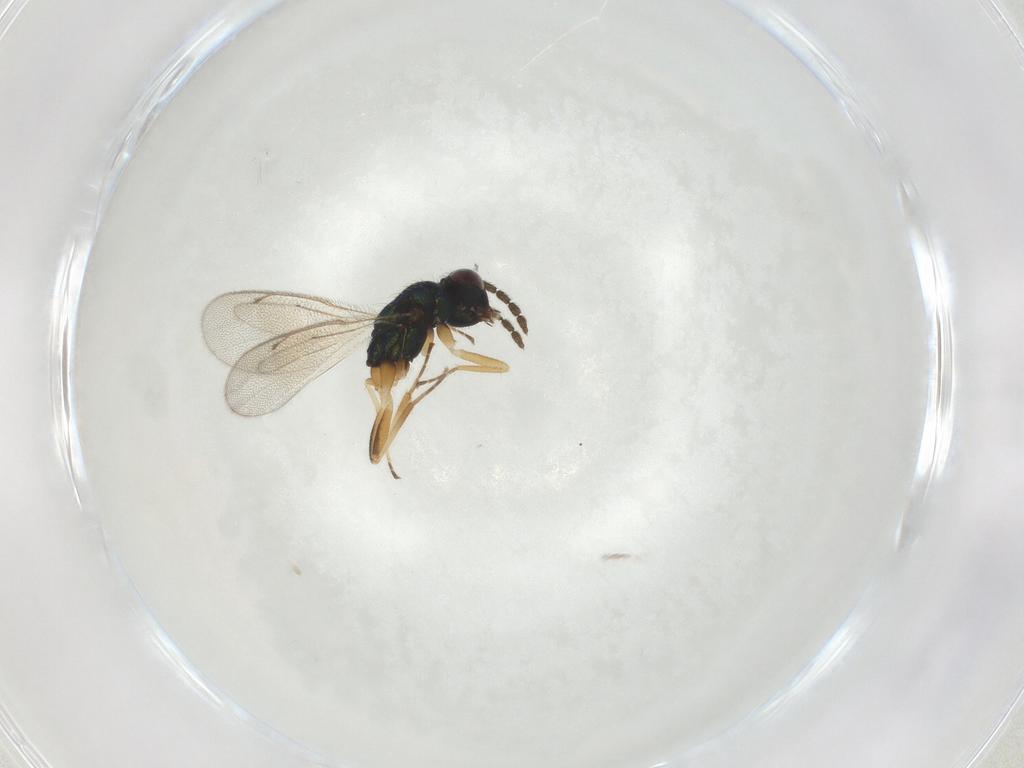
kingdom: Animalia
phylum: Arthropoda
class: Insecta
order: Hymenoptera
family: Eulophidae
